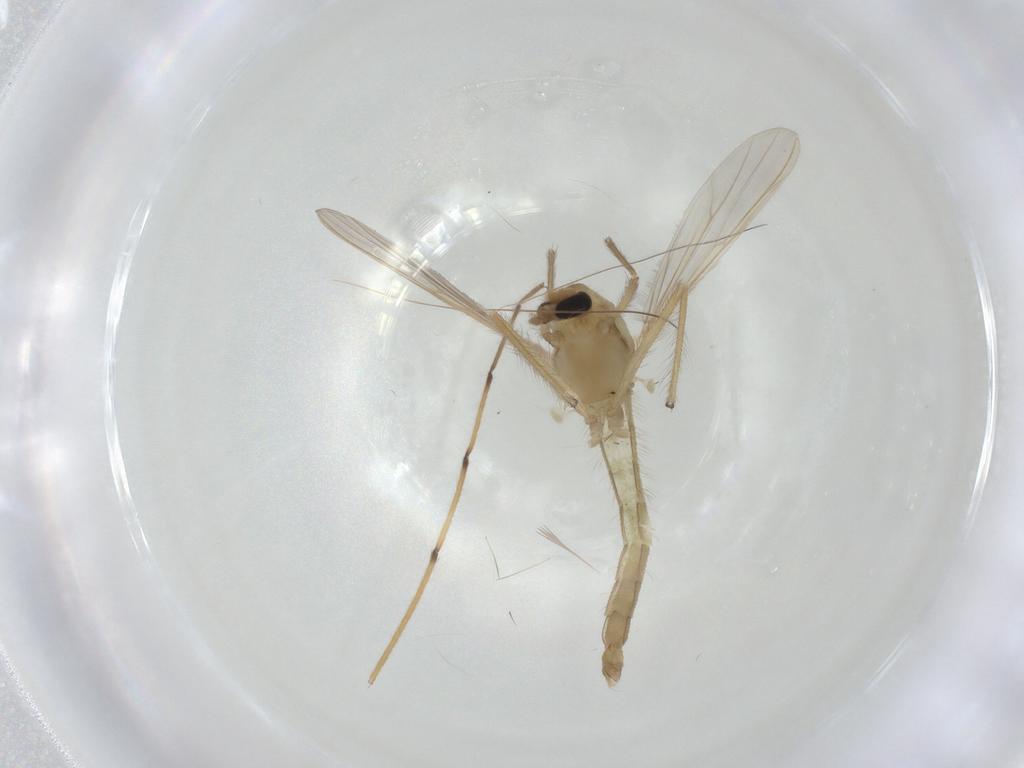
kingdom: Animalia
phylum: Arthropoda
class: Insecta
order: Diptera
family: Chironomidae
